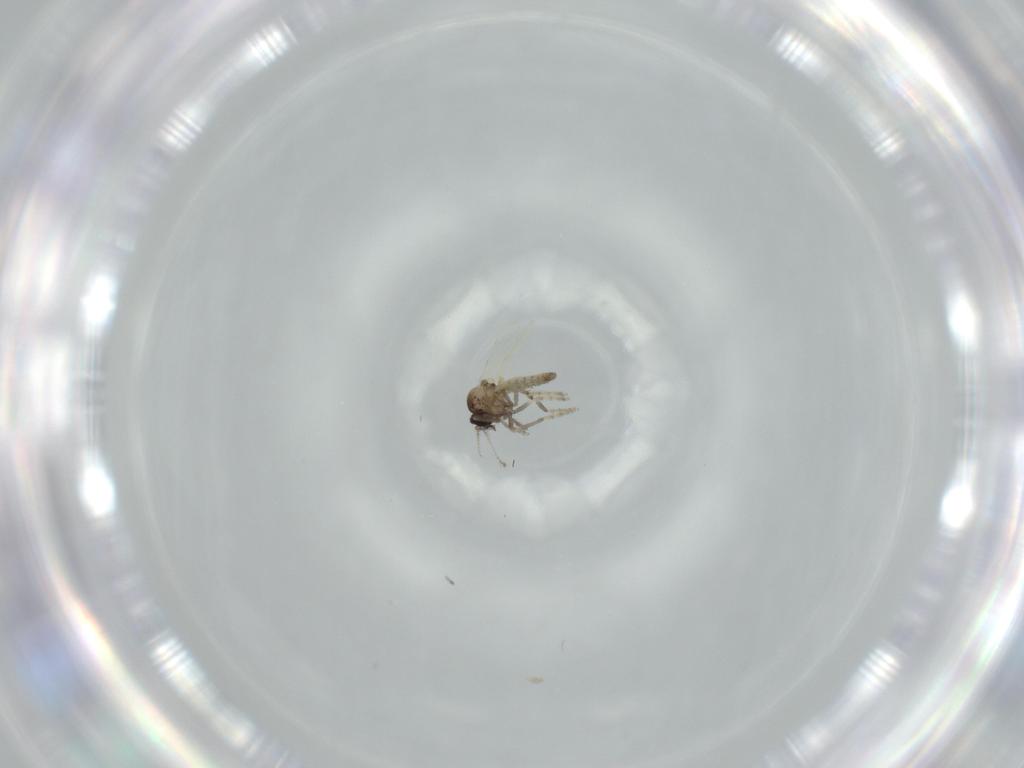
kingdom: Animalia
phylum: Arthropoda
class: Insecta
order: Diptera
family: Ceratopogonidae
